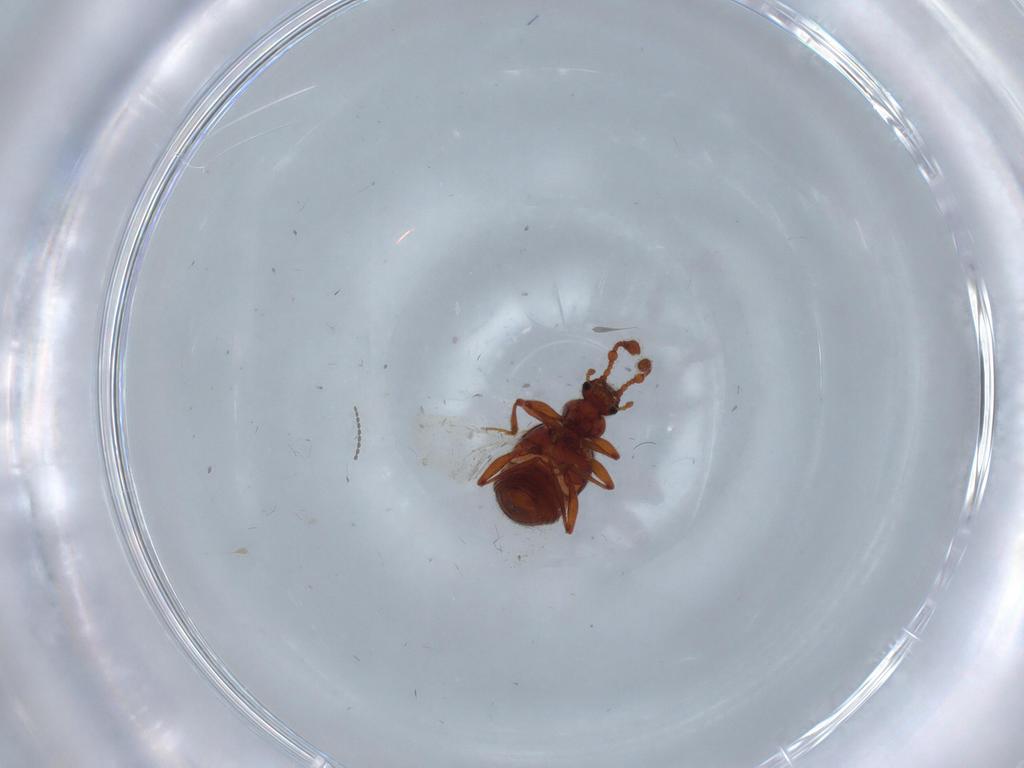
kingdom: Animalia
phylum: Arthropoda
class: Insecta
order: Coleoptera
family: Staphylinidae
